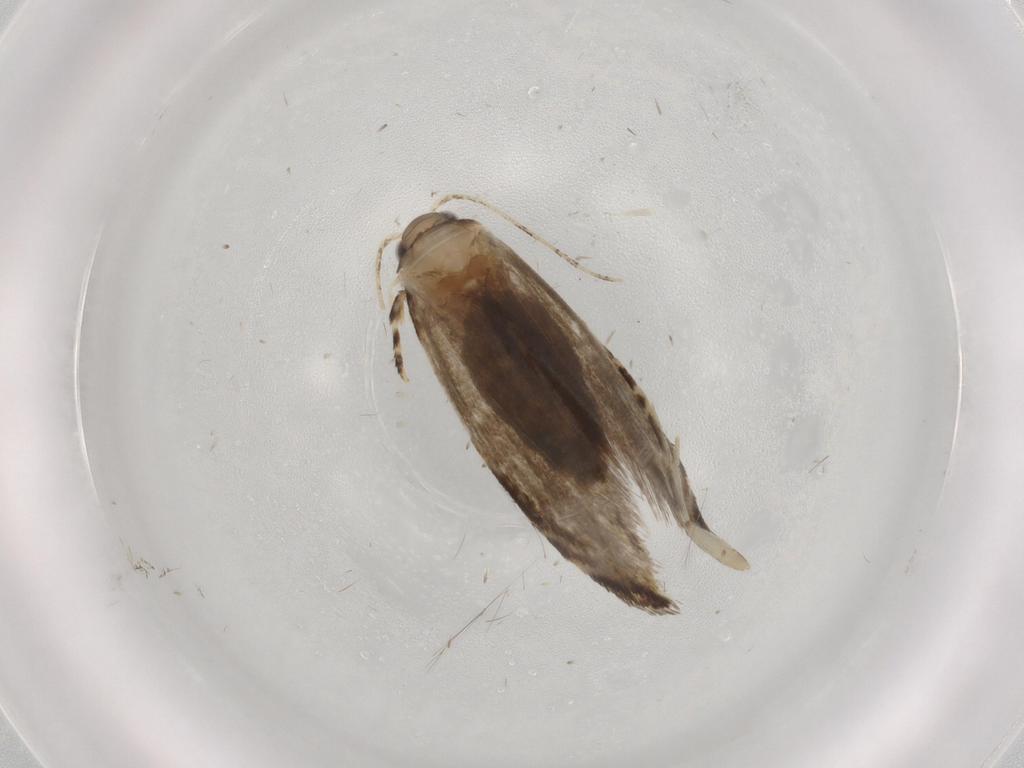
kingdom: Animalia
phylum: Arthropoda
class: Insecta
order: Lepidoptera
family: Tineidae
